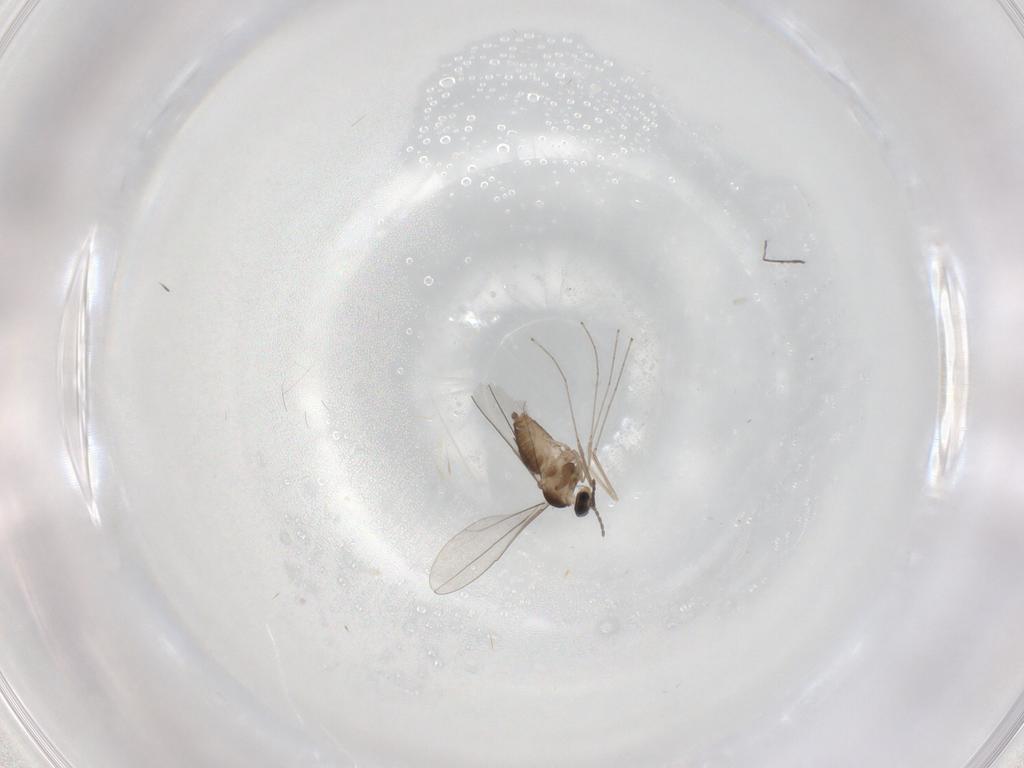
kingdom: Animalia
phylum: Arthropoda
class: Insecta
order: Diptera
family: Cecidomyiidae
